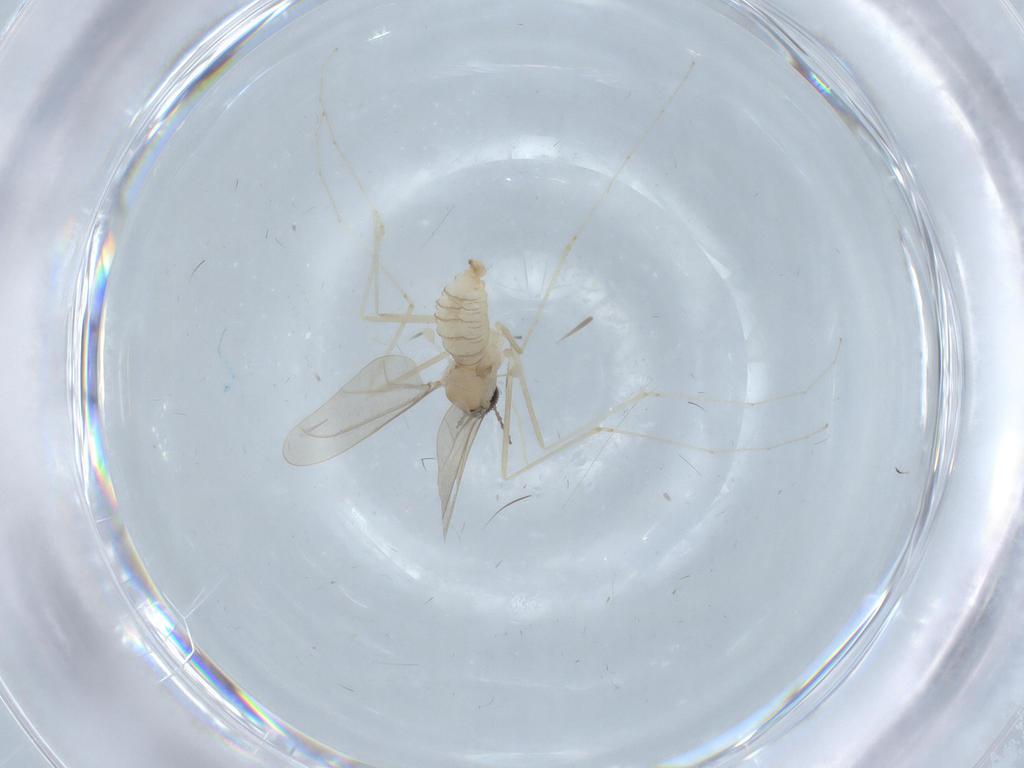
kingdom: Animalia
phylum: Arthropoda
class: Insecta
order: Diptera
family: Cecidomyiidae
